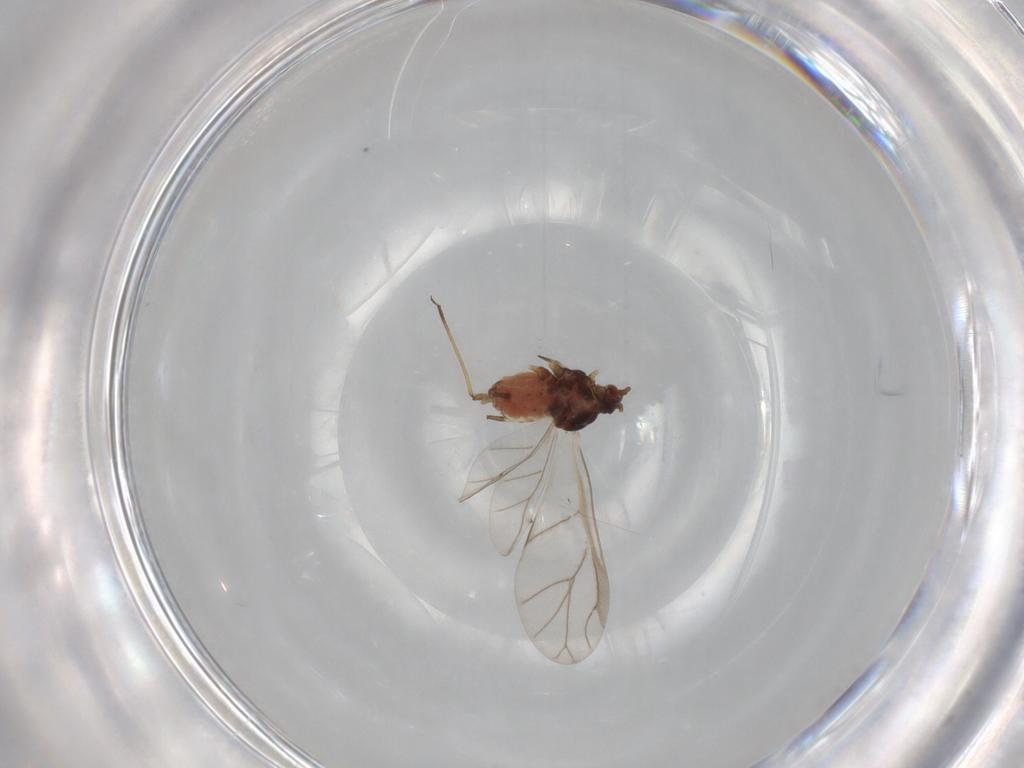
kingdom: Animalia
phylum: Arthropoda
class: Insecta
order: Hemiptera
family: Aphididae
